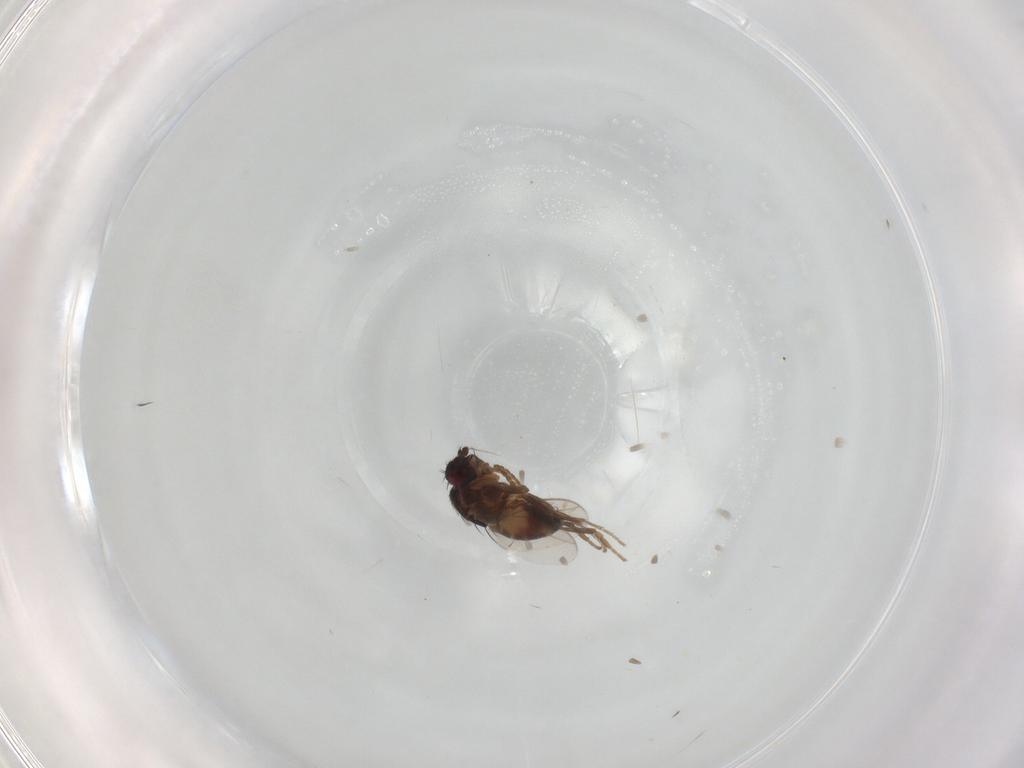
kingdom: Animalia
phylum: Arthropoda
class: Insecta
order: Diptera
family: Sphaeroceridae
